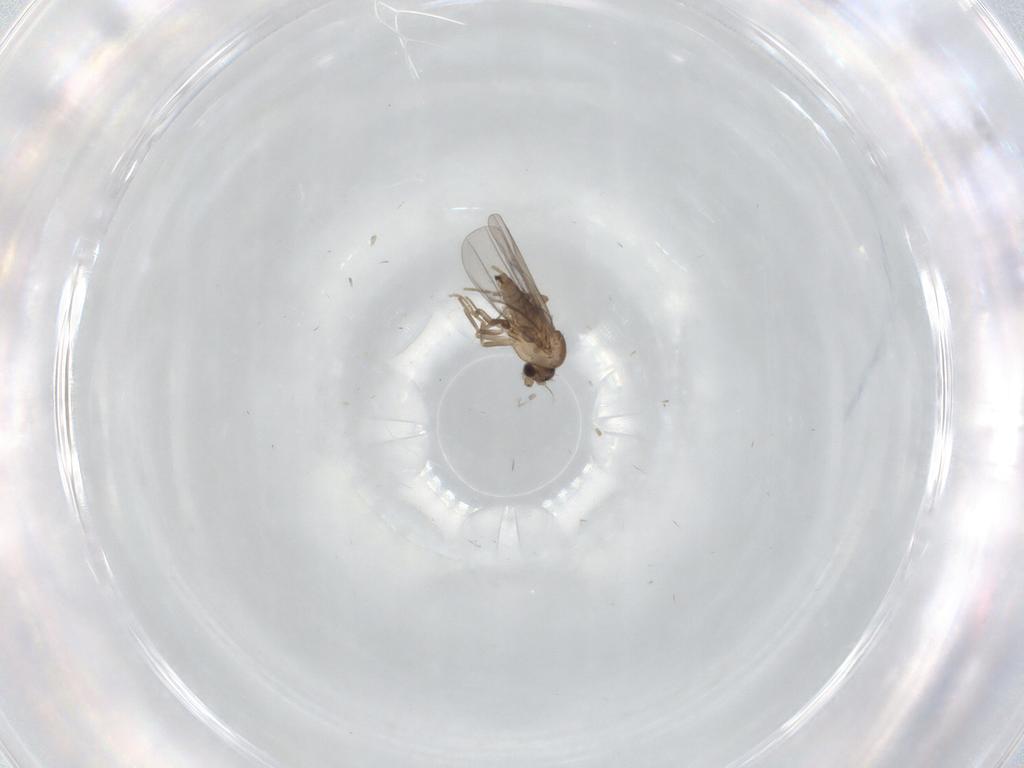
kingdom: Animalia
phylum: Arthropoda
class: Insecta
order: Diptera
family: Chironomidae
